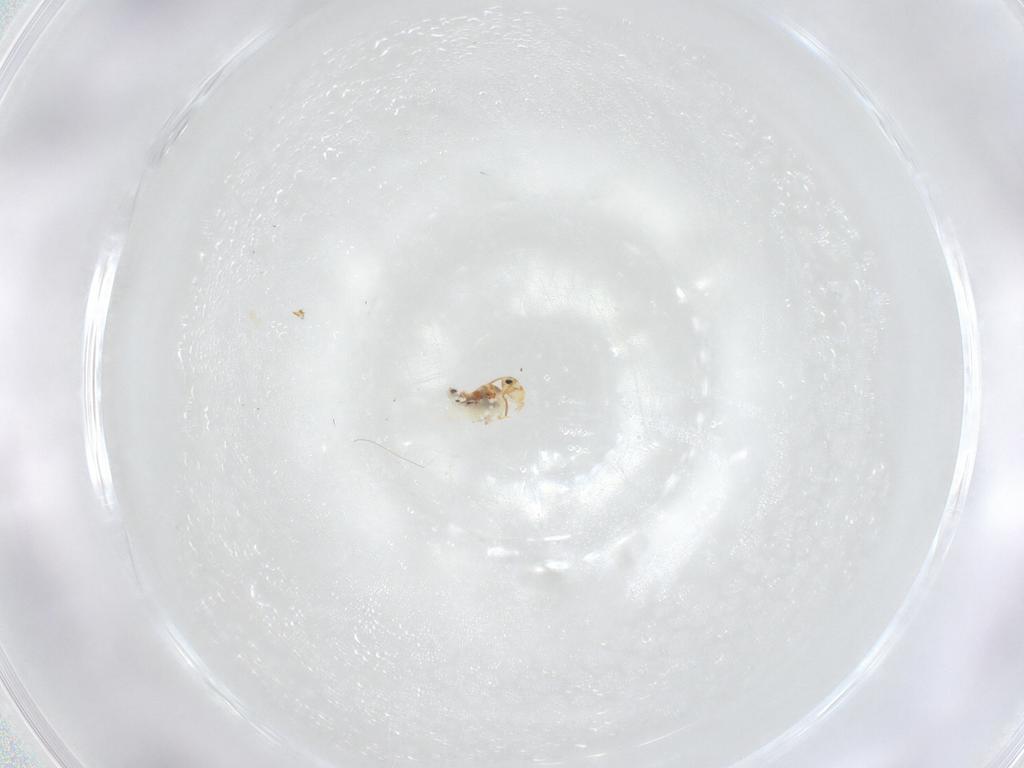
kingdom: Animalia
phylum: Arthropoda
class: Collembola
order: Symphypleona
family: Bourletiellidae
